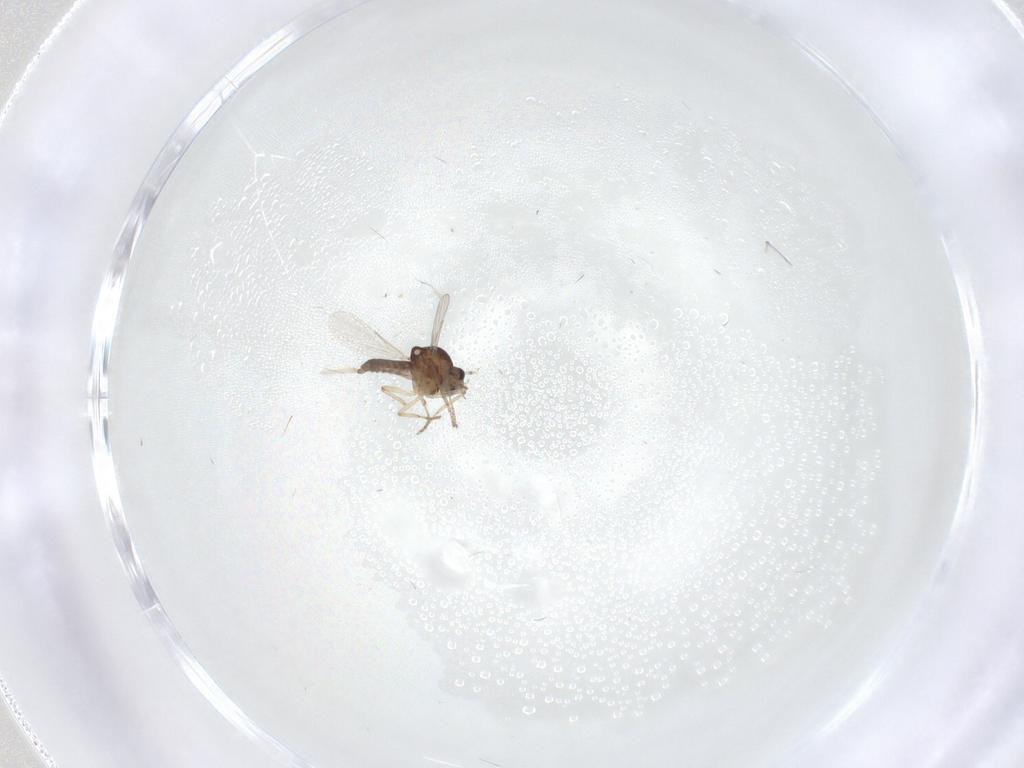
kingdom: Animalia
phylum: Arthropoda
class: Insecta
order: Diptera
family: Ceratopogonidae
